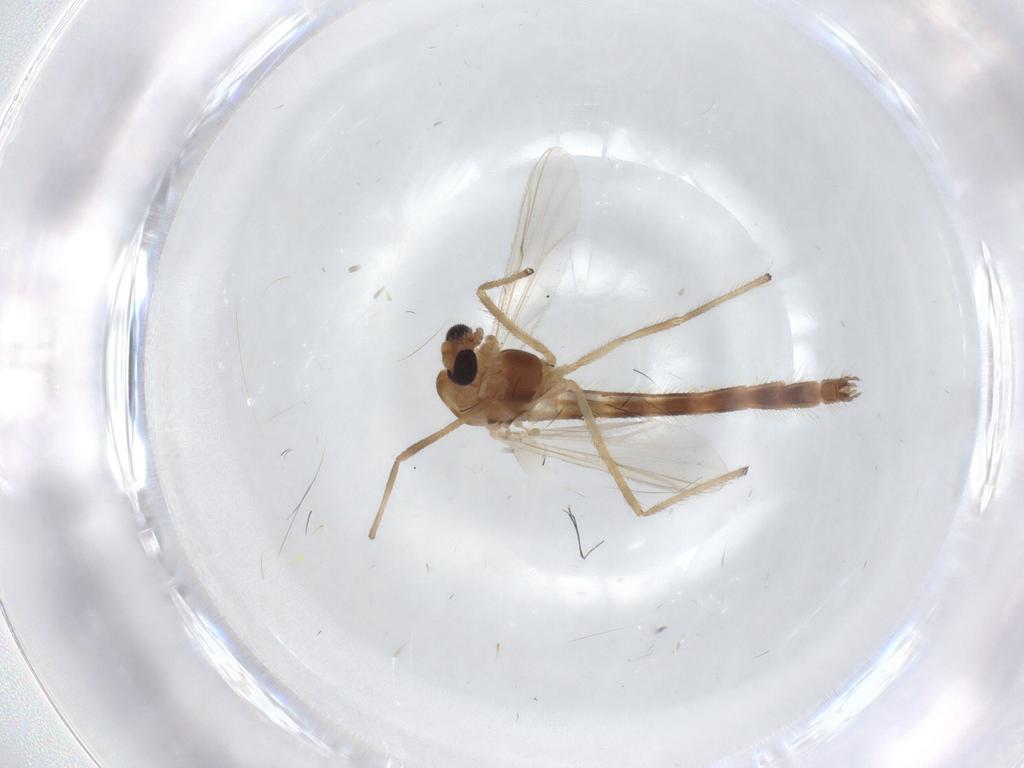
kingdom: Animalia
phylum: Arthropoda
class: Insecta
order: Diptera
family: Chironomidae
